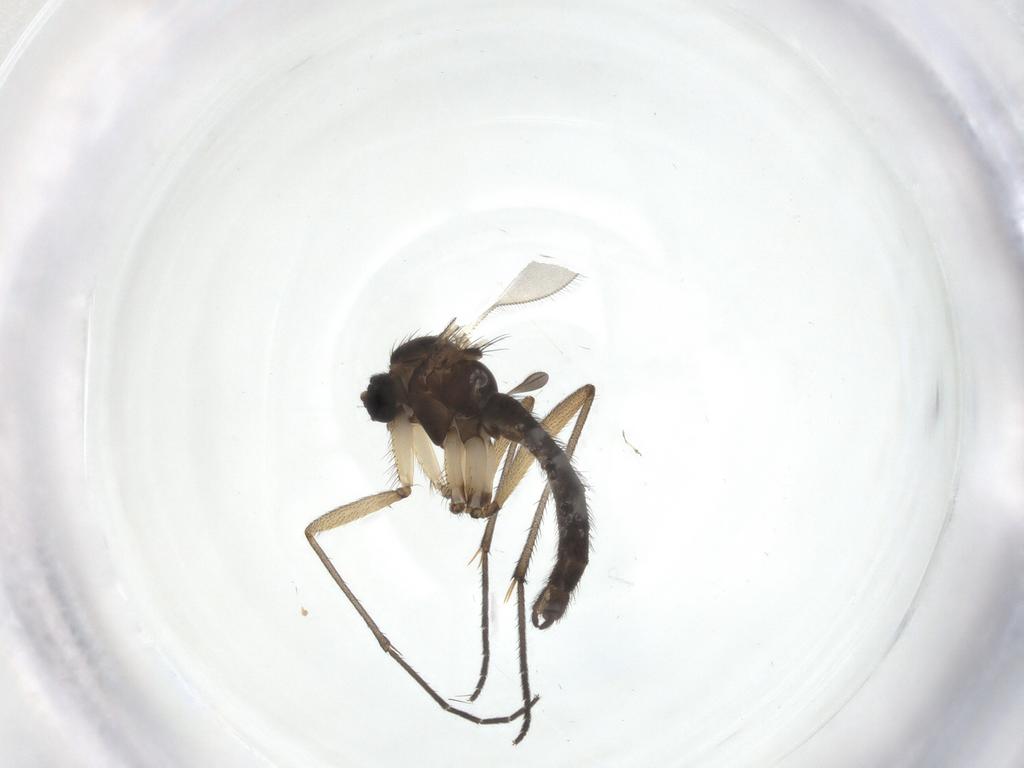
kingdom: Animalia
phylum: Arthropoda
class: Insecta
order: Diptera
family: Sciaridae
